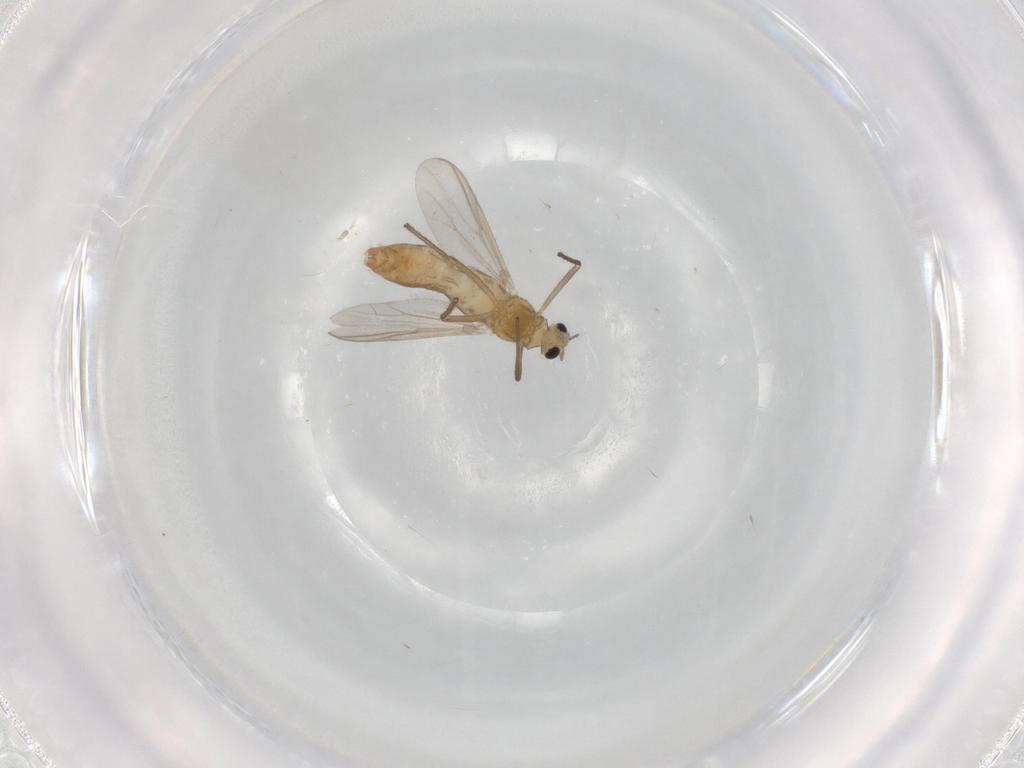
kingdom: Animalia
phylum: Arthropoda
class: Insecta
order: Diptera
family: Chironomidae
